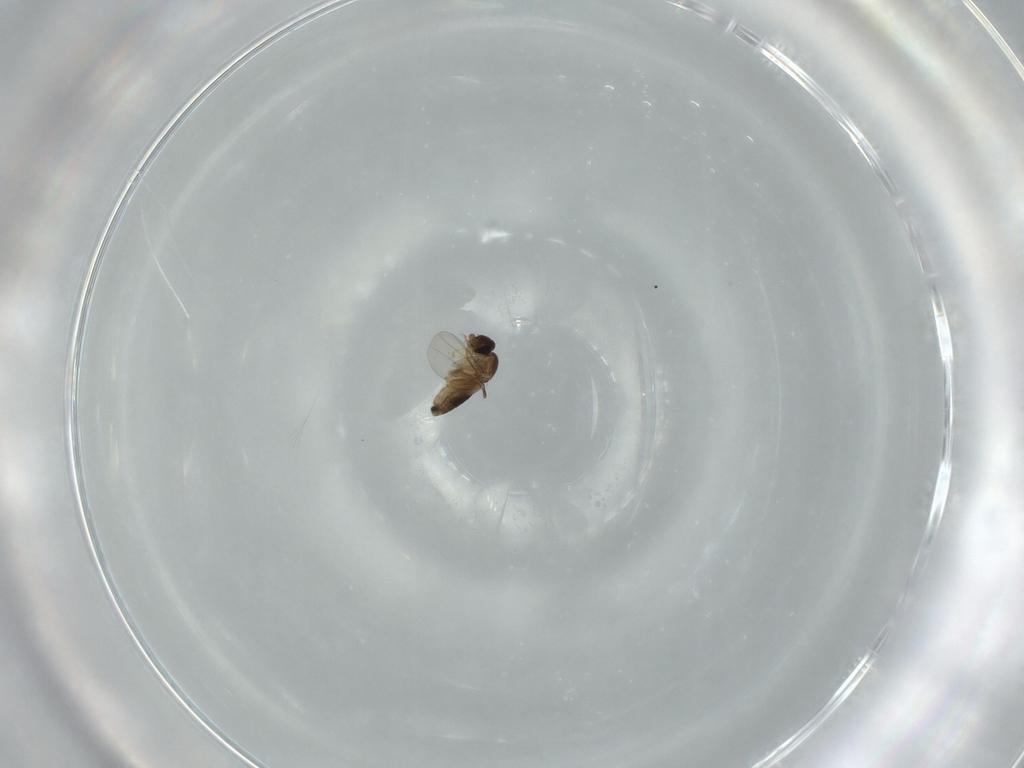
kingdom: Animalia
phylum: Arthropoda
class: Insecta
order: Diptera
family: Phoridae
